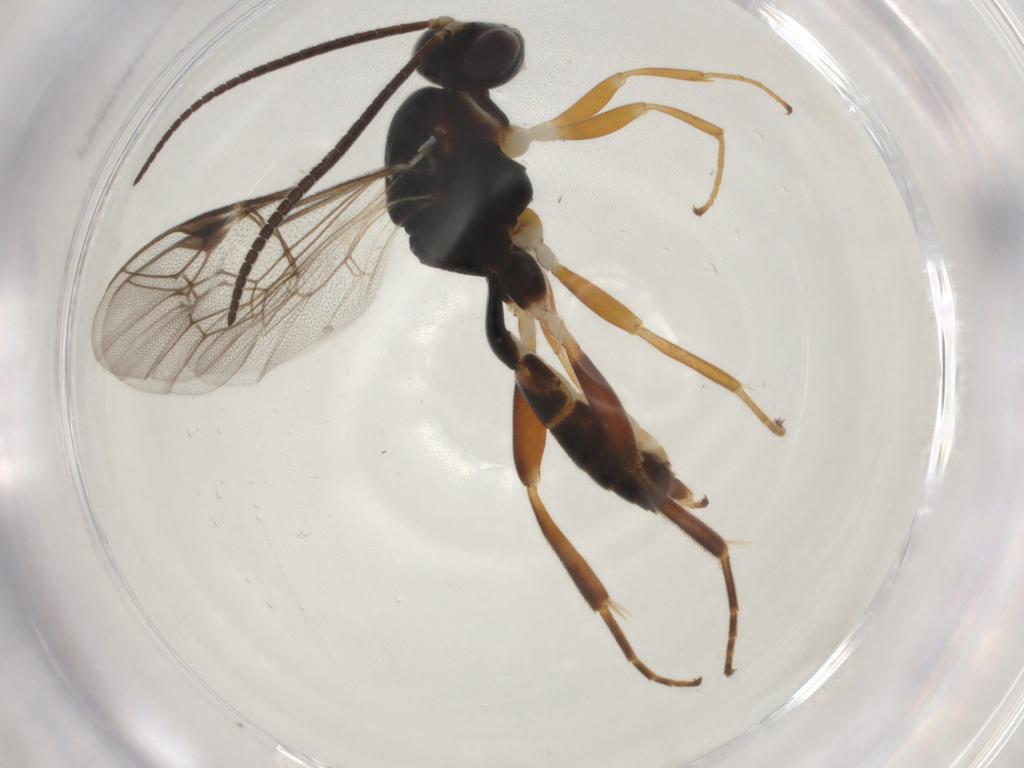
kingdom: Animalia
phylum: Arthropoda
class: Insecta
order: Hymenoptera
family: Ichneumonidae
